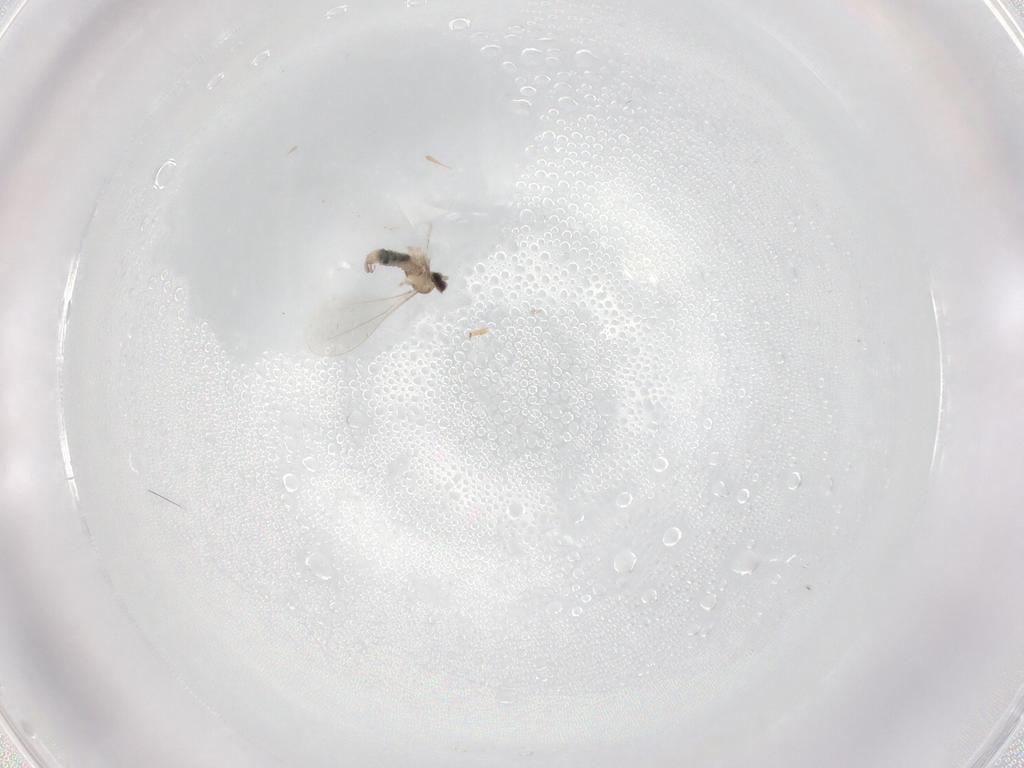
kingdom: Animalia
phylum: Arthropoda
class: Insecta
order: Diptera
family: Cecidomyiidae
